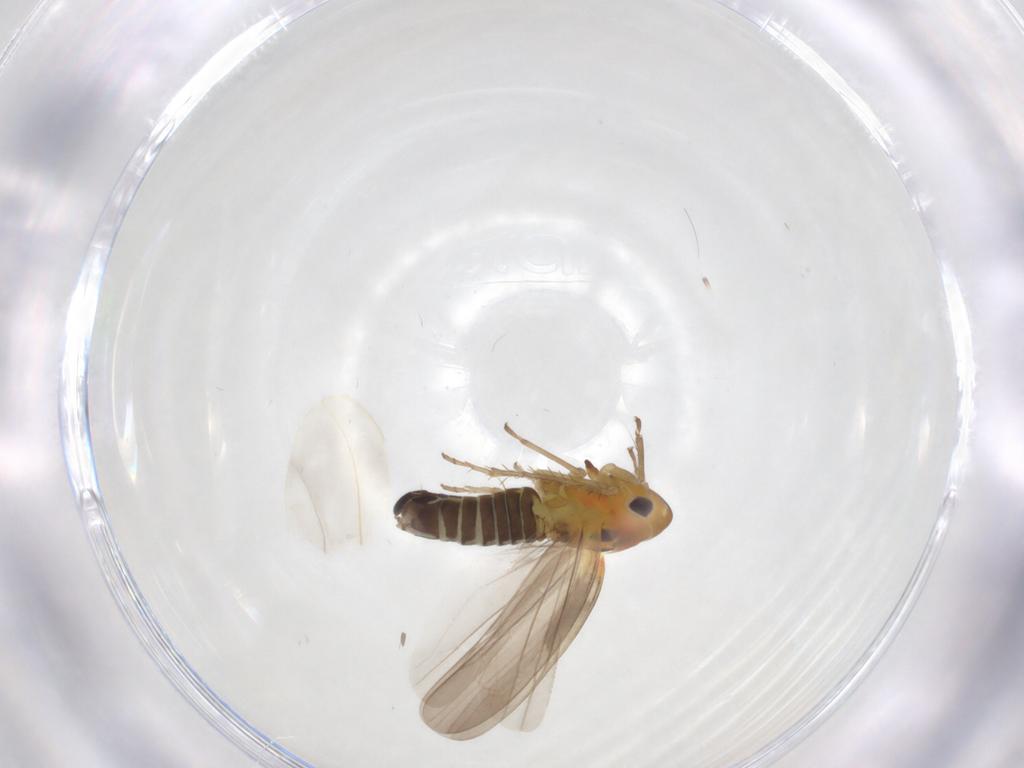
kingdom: Animalia
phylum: Arthropoda
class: Insecta
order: Hemiptera
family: Cicadellidae
